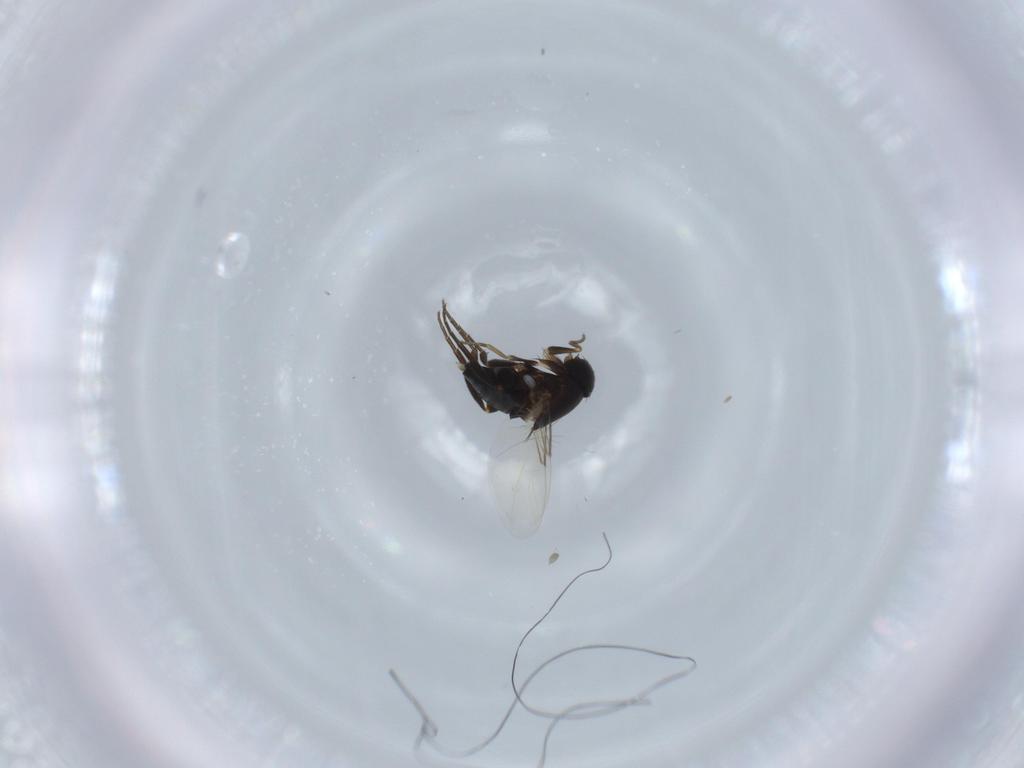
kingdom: Animalia
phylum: Arthropoda
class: Insecta
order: Diptera
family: Phoridae
